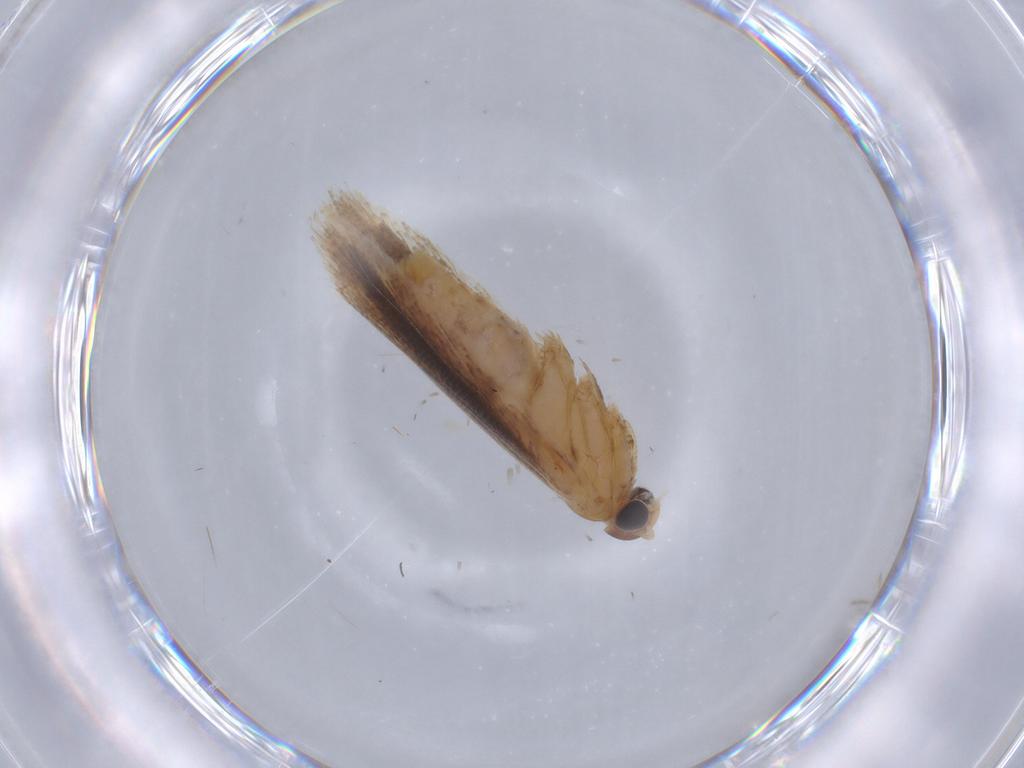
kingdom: Animalia
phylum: Arthropoda
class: Insecta
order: Lepidoptera
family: Gelechiidae
